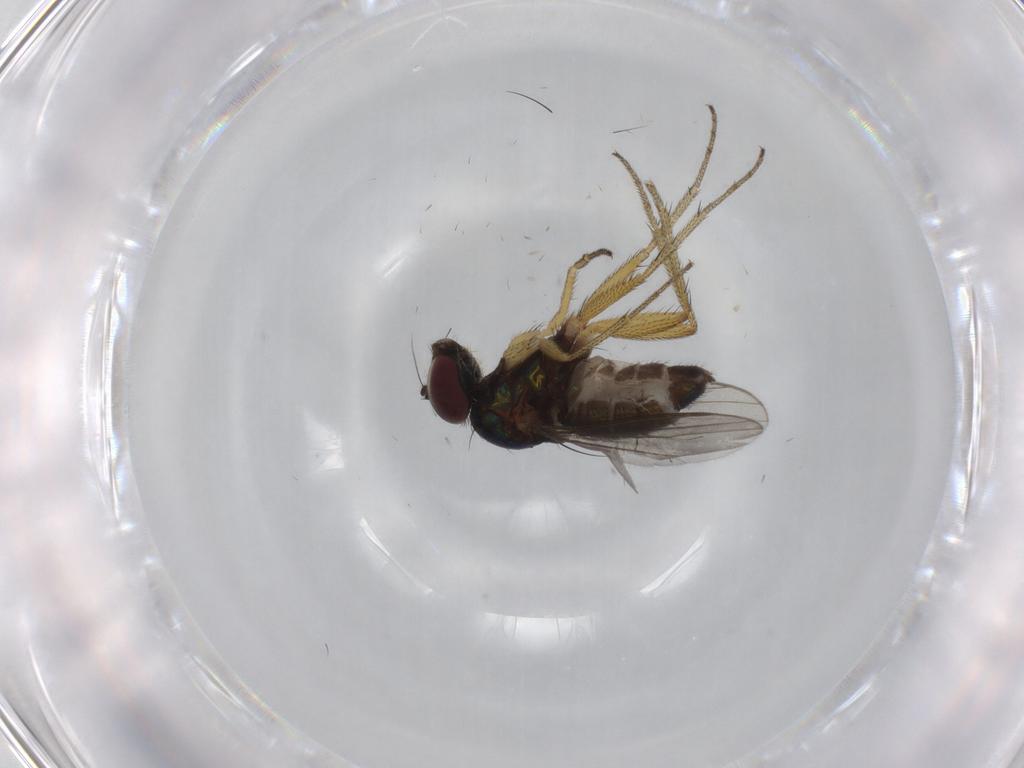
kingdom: Animalia
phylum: Arthropoda
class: Insecta
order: Diptera
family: Dolichopodidae
